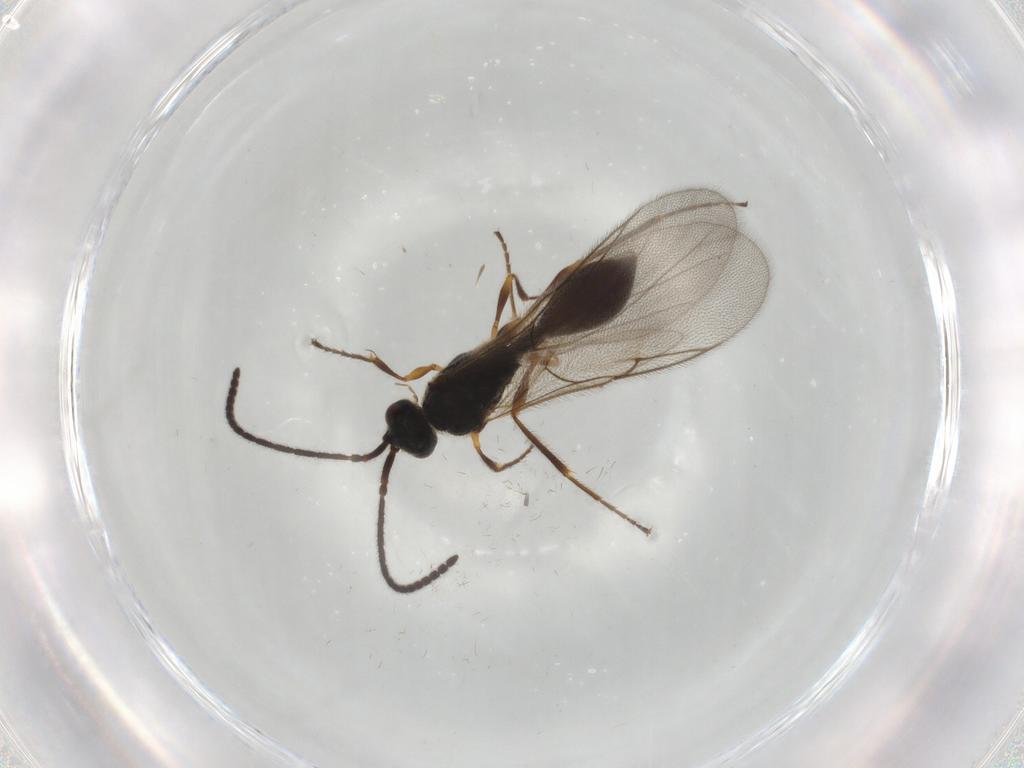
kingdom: Animalia
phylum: Arthropoda
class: Insecta
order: Hymenoptera
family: Diapriidae
